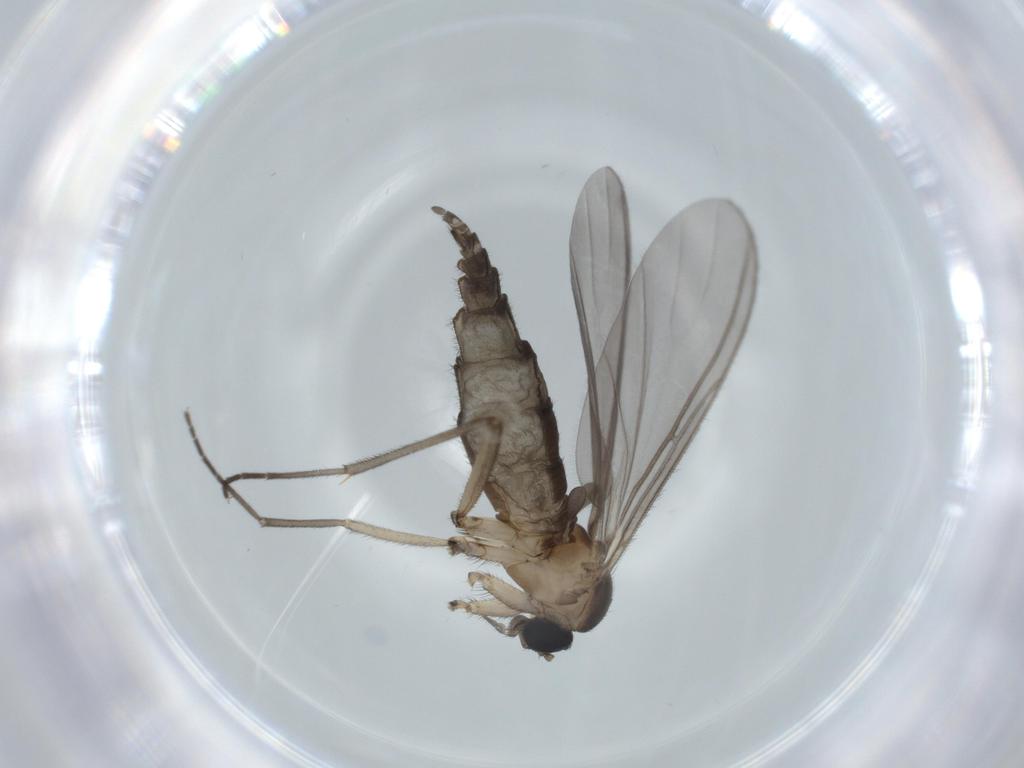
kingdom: Animalia
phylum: Arthropoda
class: Insecta
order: Diptera
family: Sciaridae
